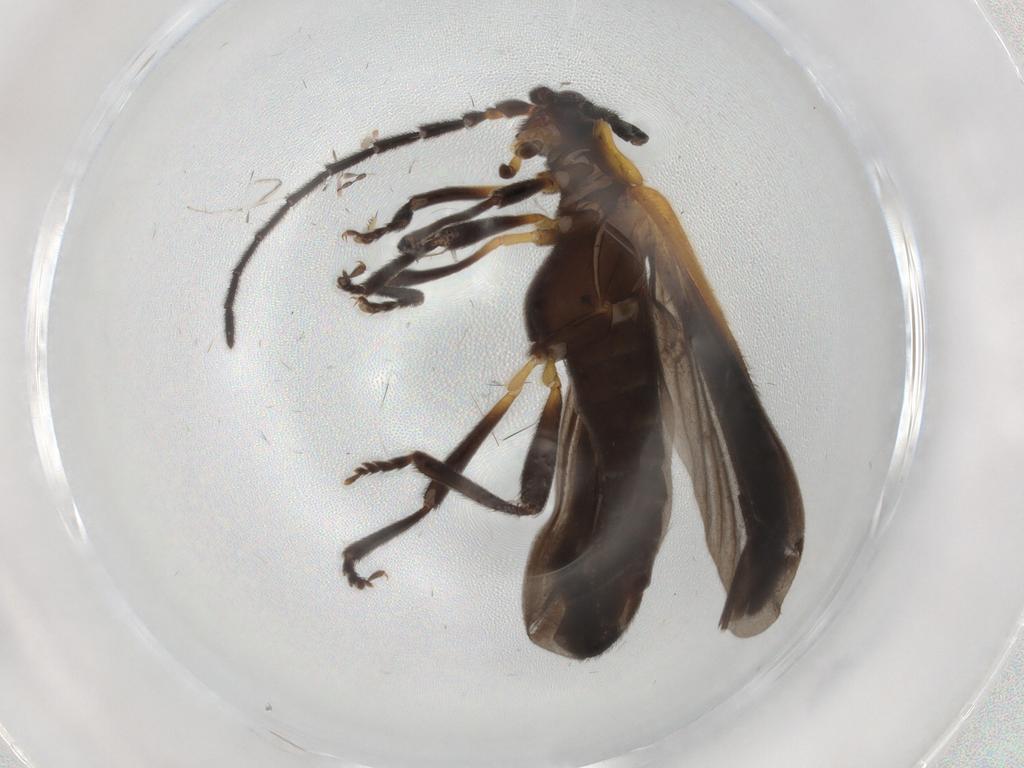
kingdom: Animalia
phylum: Arthropoda
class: Insecta
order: Coleoptera
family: Lycidae
